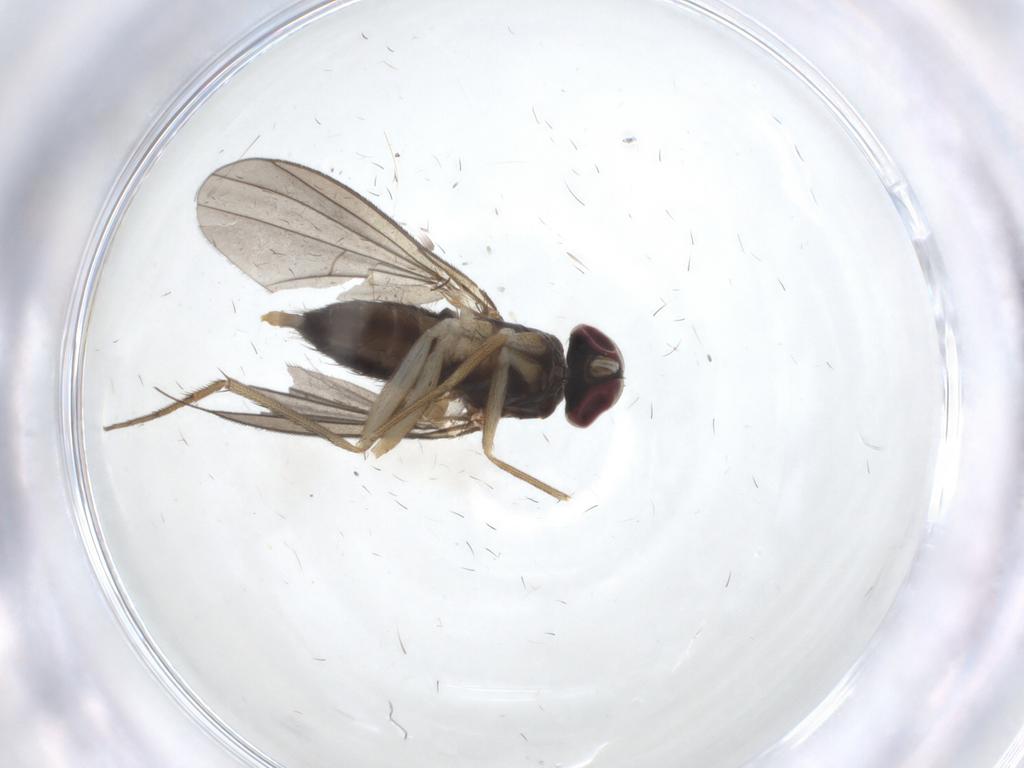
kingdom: Animalia
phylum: Arthropoda
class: Insecta
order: Diptera
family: Dolichopodidae
